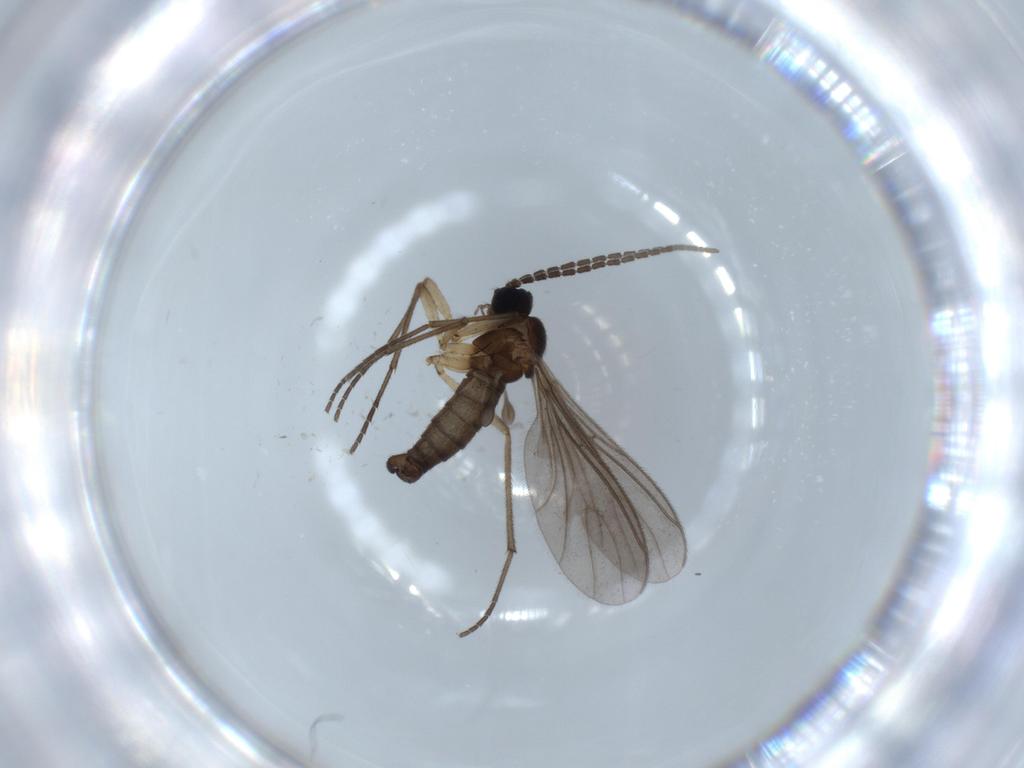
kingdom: Animalia
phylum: Arthropoda
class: Insecta
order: Diptera
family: Sciaridae
